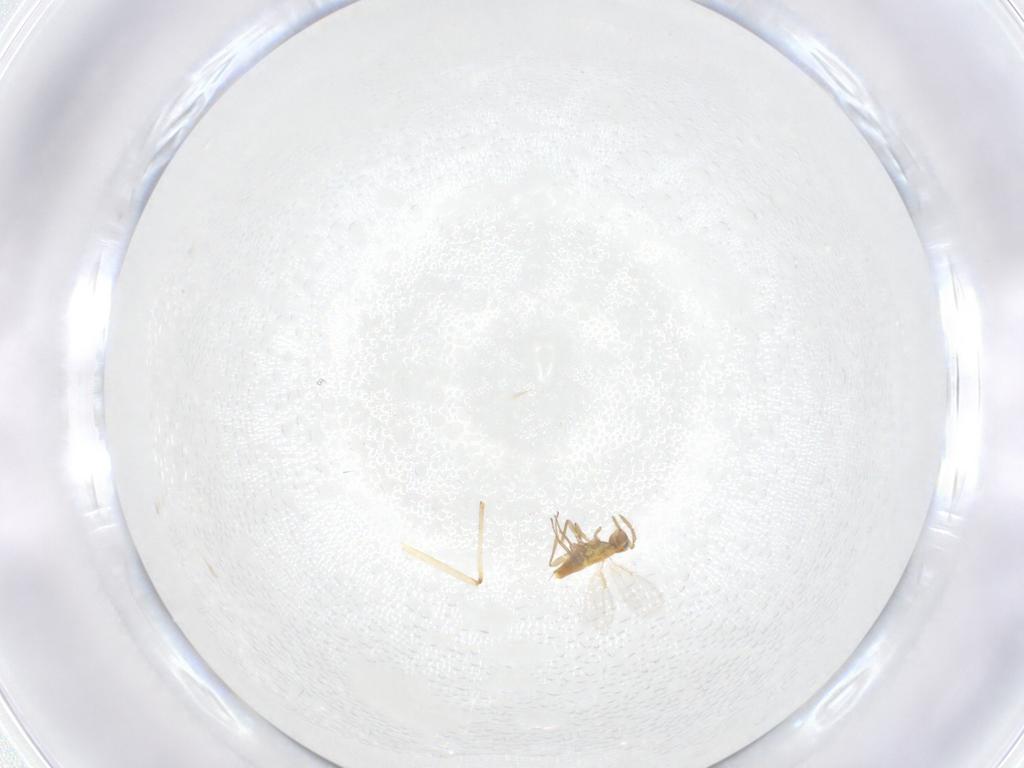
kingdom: Animalia
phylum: Arthropoda
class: Insecta
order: Hymenoptera
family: Aphelinidae
